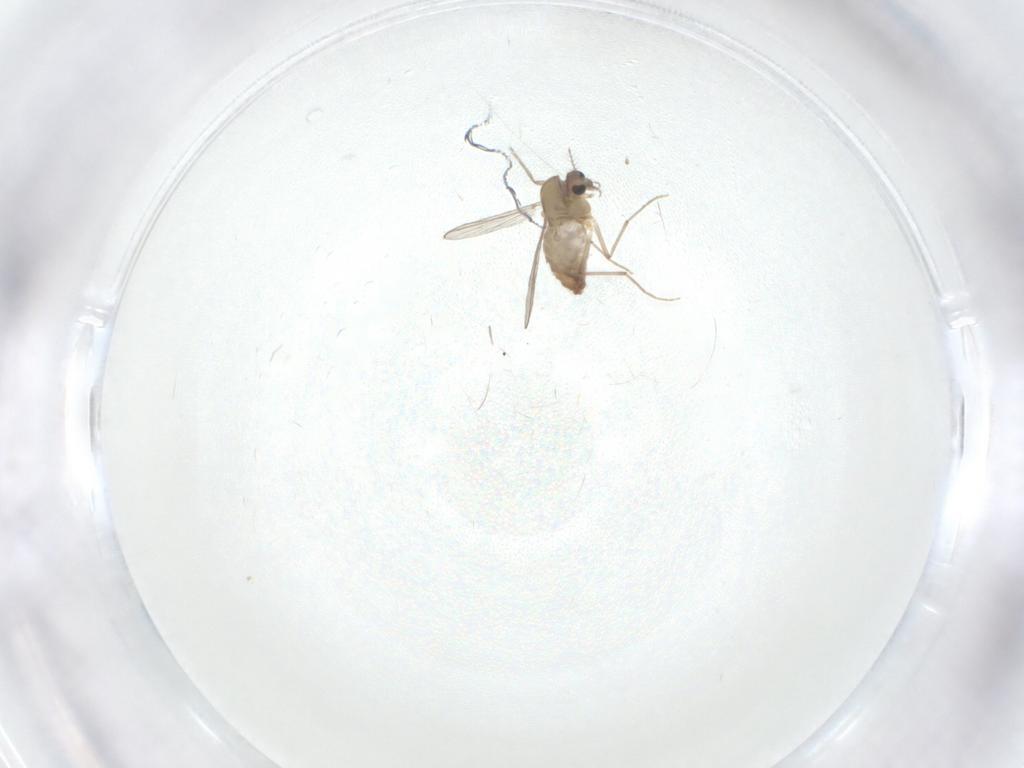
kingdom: Animalia
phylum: Arthropoda
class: Insecta
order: Diptera
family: Chironomidae
